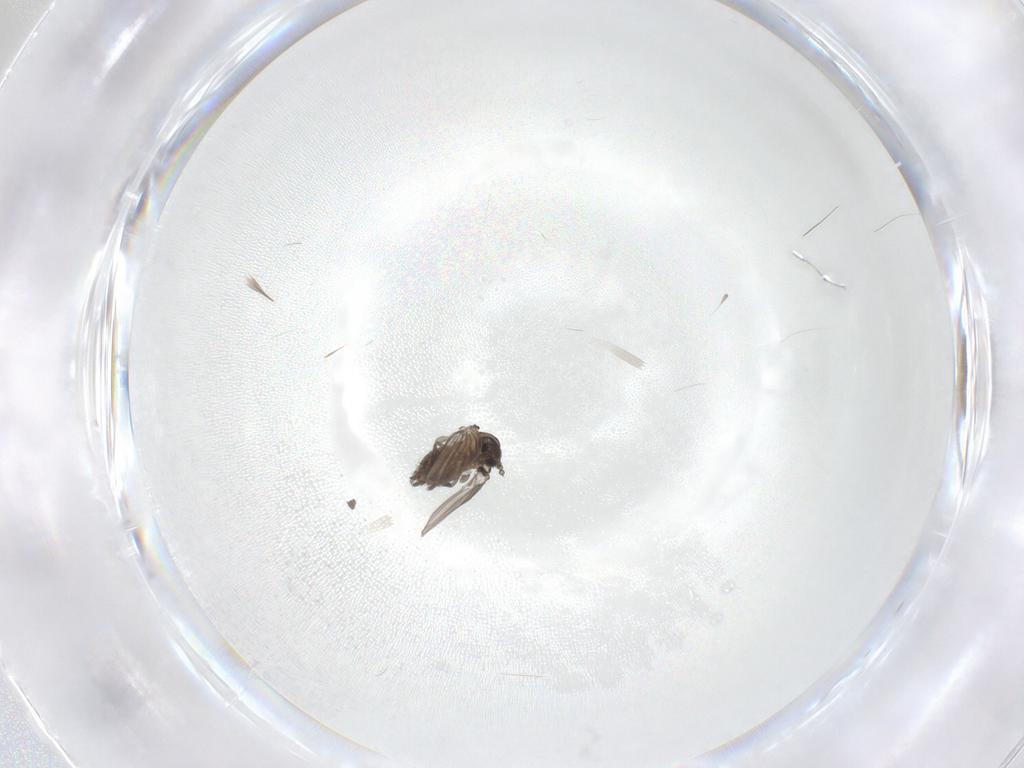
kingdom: Animalia
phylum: Arthropoda
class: Insecta
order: Diptera
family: Psychodidae
